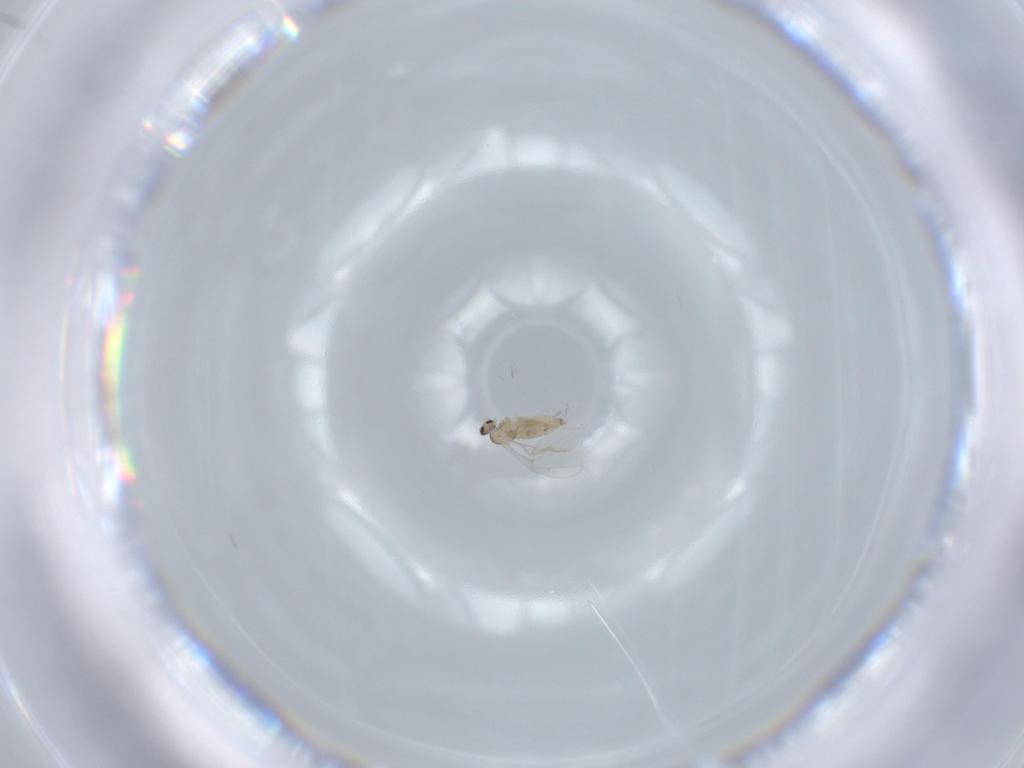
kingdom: Animalia
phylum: Arthropoda
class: Insecta
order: Diptera
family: Cecidomyiidae
